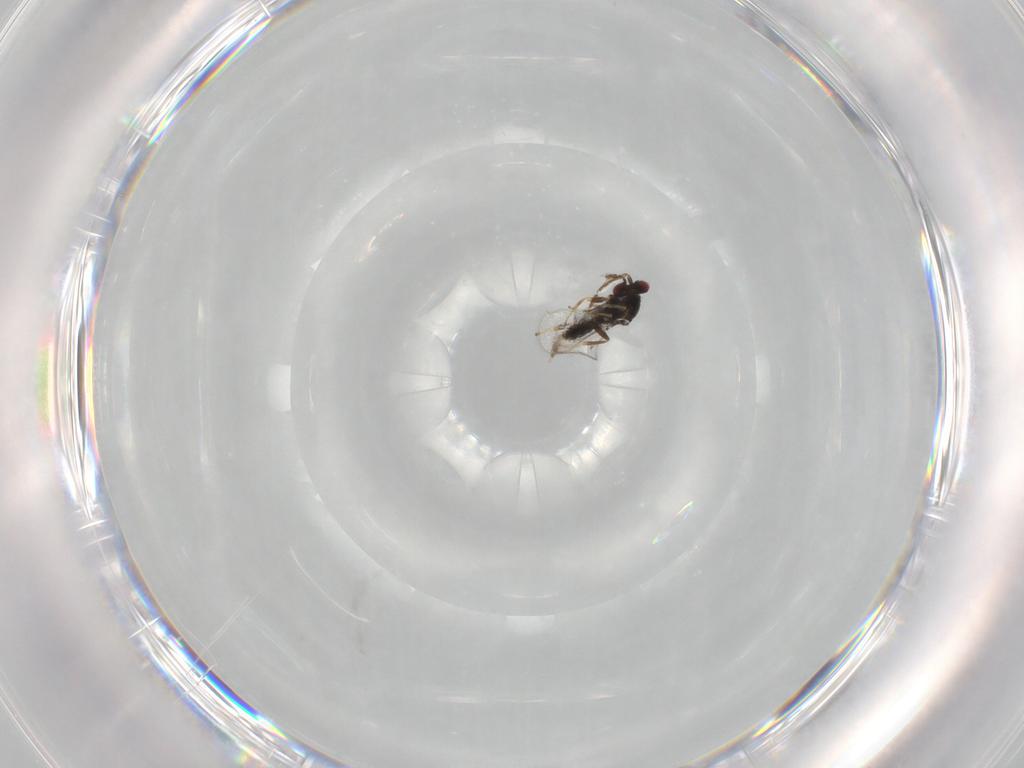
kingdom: Animalia
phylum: Arthropoda
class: Insecta
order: Hymenoptera
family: Eulophidae
